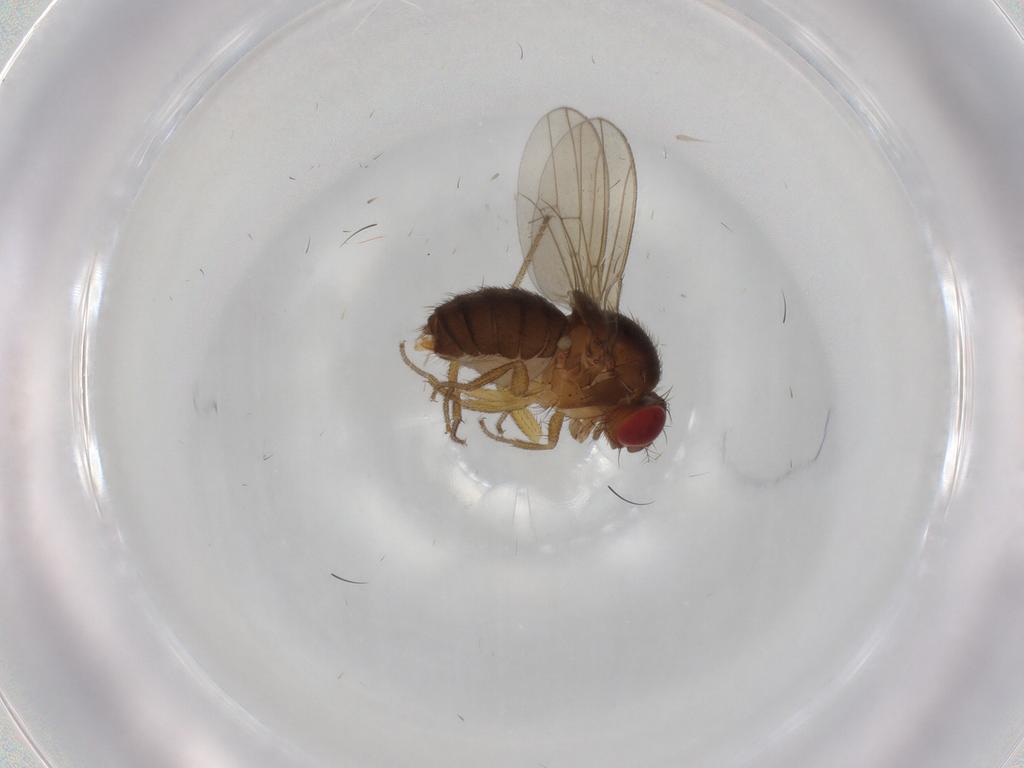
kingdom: Animalia
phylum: Arthropoda
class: Insecta
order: Diptera
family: Drosophilidae
